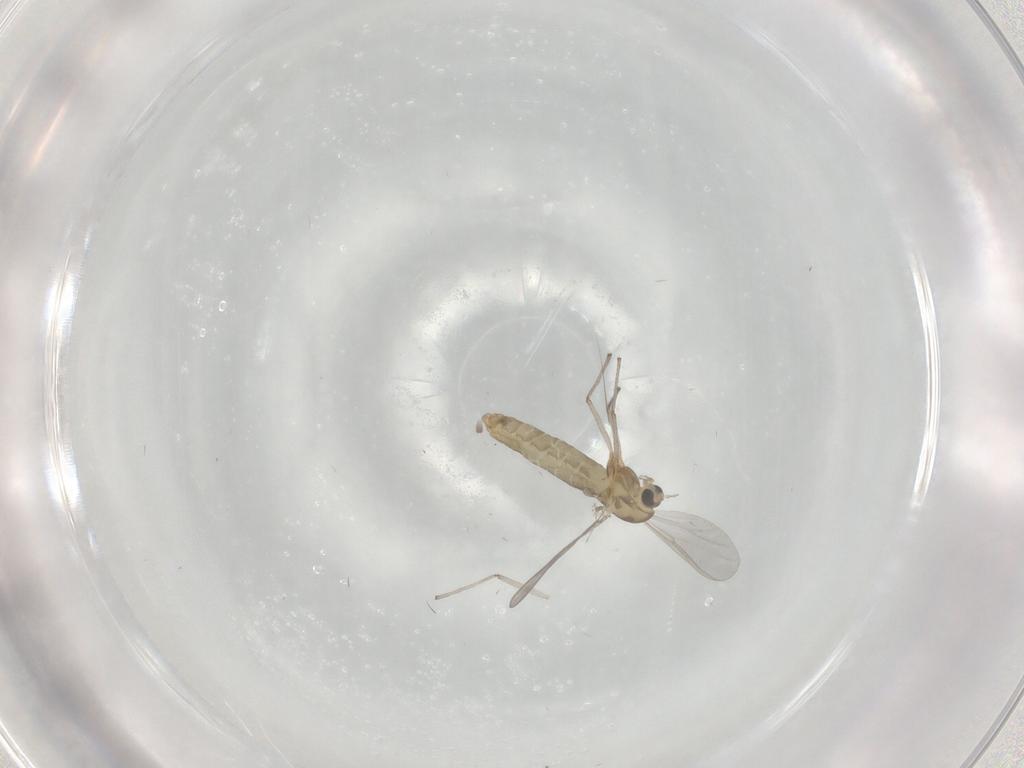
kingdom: Animalia
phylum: Arthropoda
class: Insecta
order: Diptera
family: Cecidomyiidae
